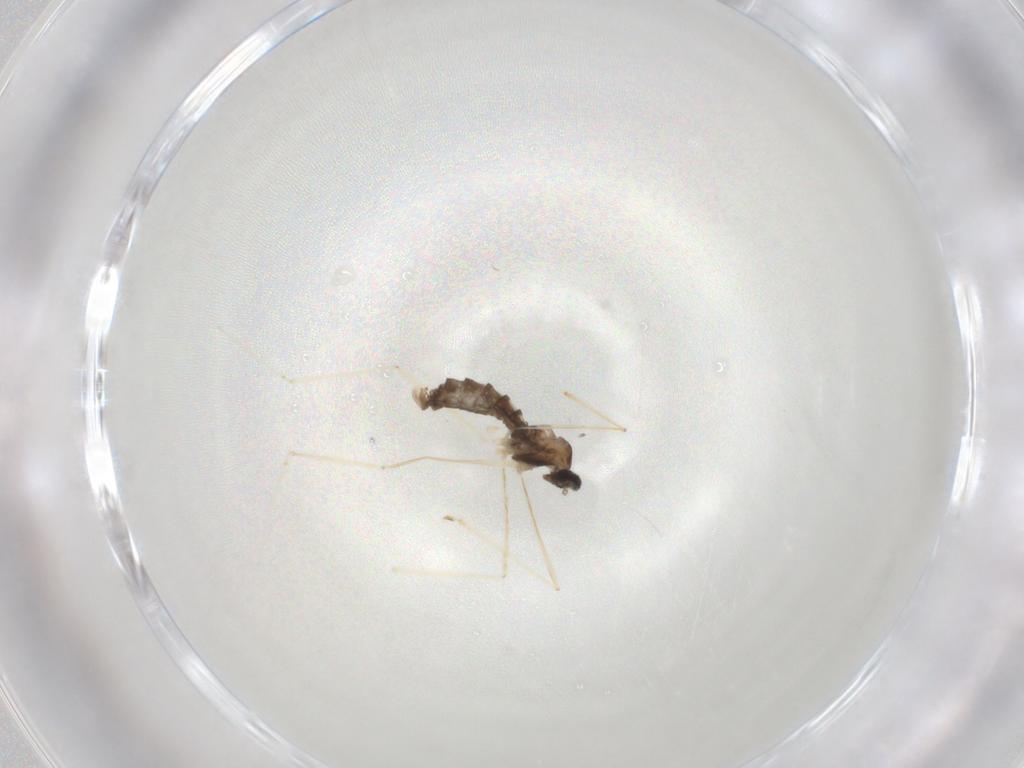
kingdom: Animalia
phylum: Arthropoda
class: Insecta
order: Diptera
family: Cecidomyiidae
